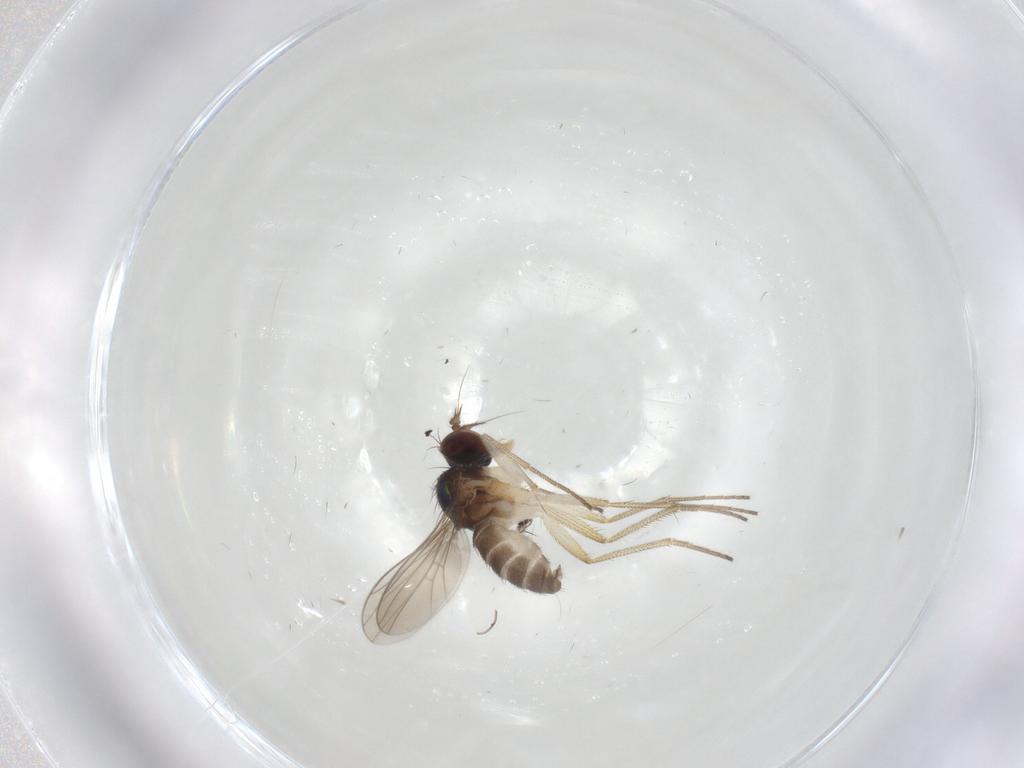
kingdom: Animalia
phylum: Arthropoda
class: Insecta
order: Diptera
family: Dolichopodidae
